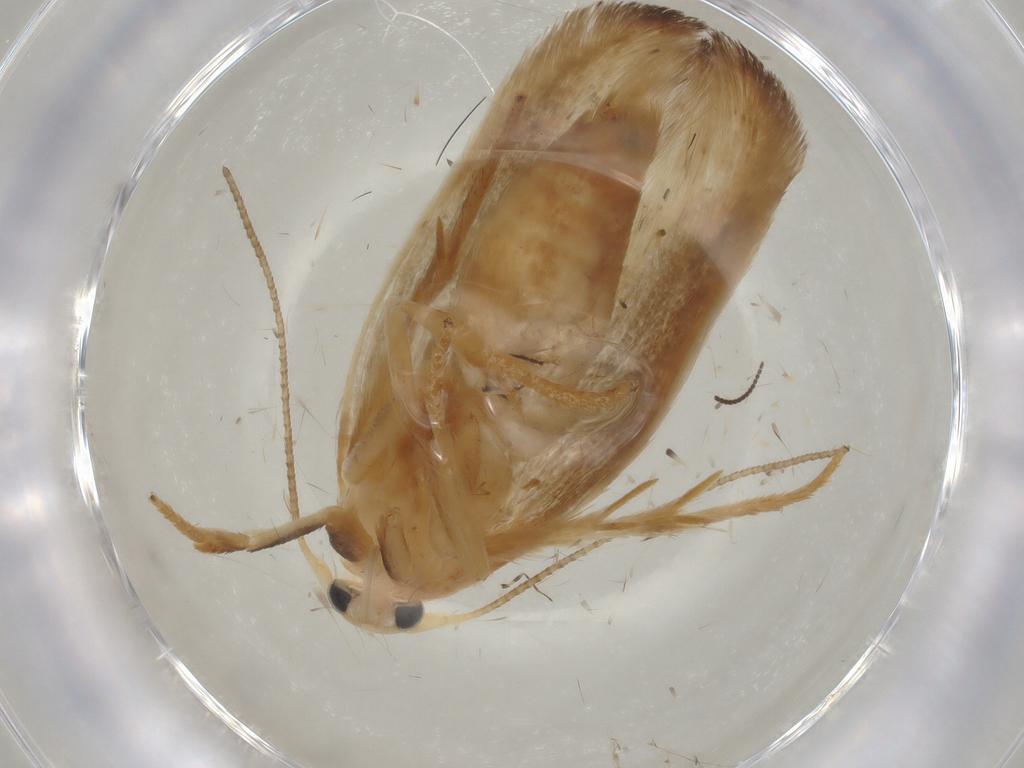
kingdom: Animalia
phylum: Arthropoda
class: Insecta
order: Lepidoptera
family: Geometridae
